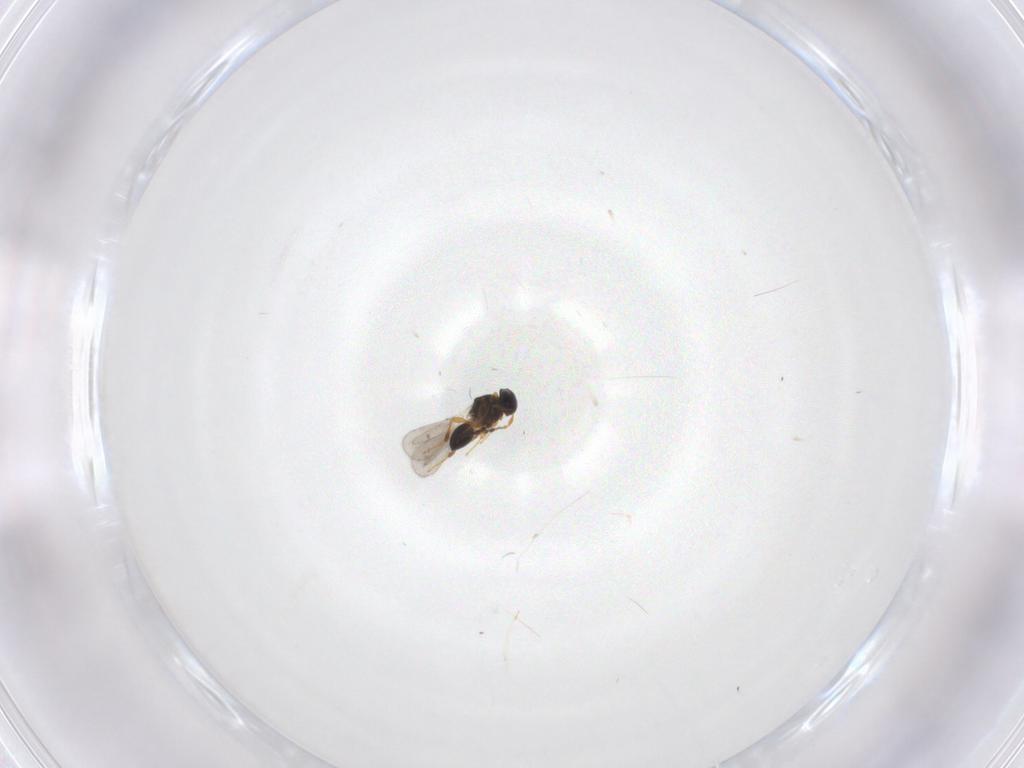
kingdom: Animalia
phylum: Arthropoda
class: Insecta
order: Hymenoptera
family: Platygastridae
